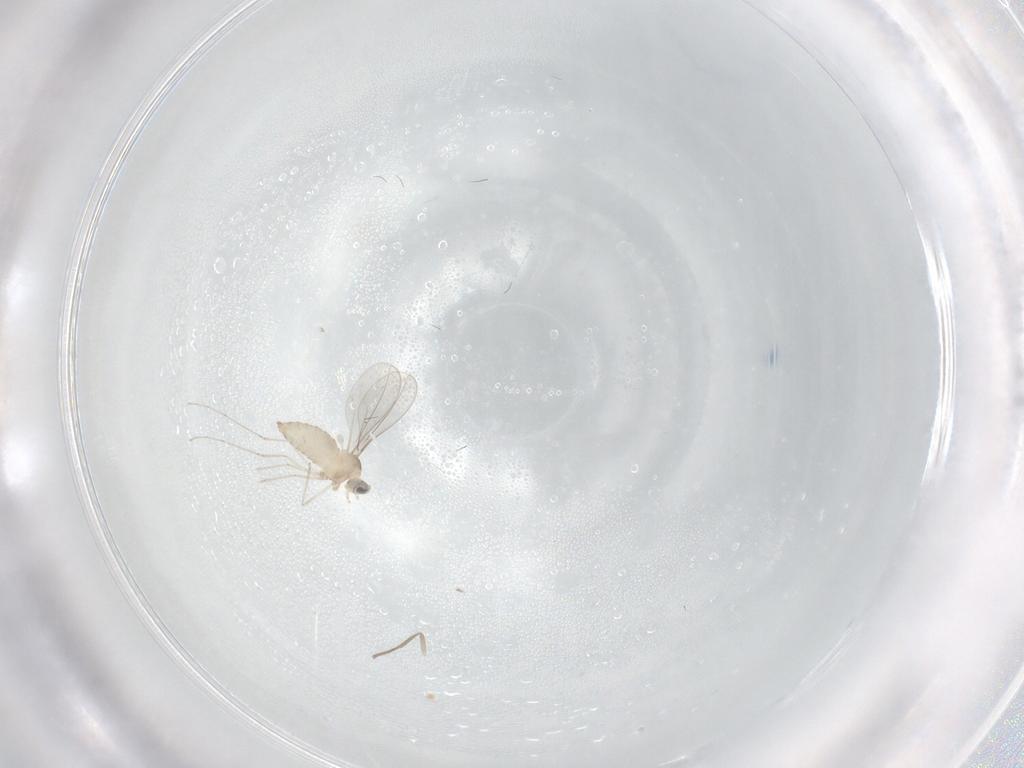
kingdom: Animalia
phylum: Arthropoda
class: Insecta
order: Diptera
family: Cecidomyiidae
